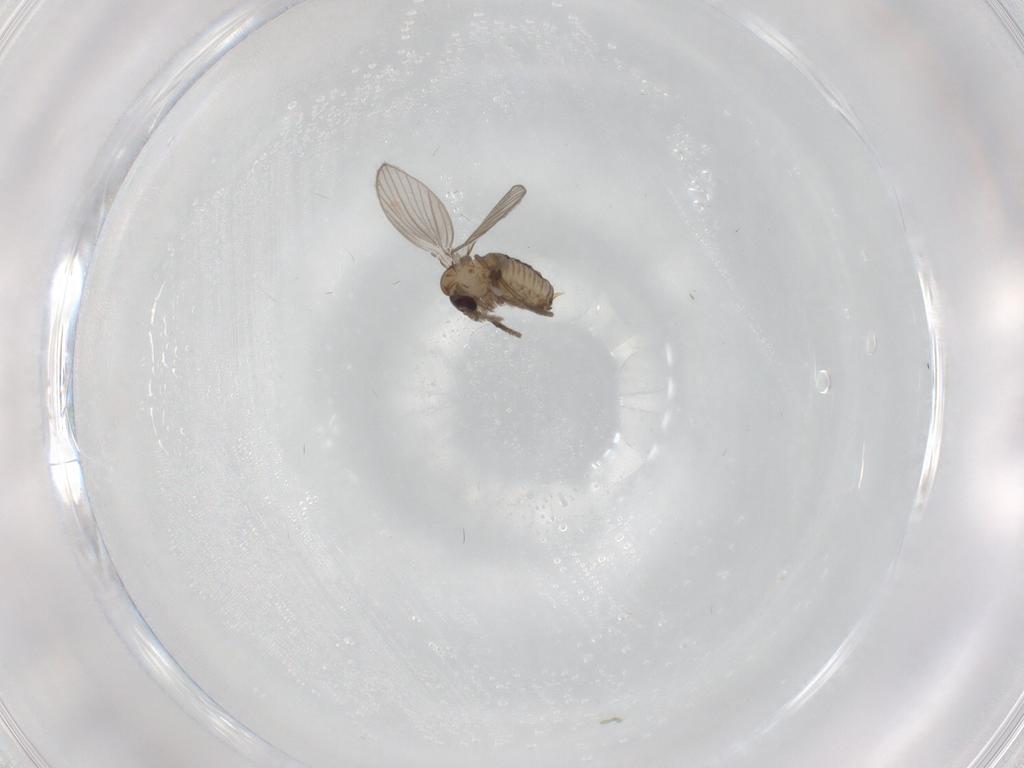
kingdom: Animalia
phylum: Arthropoda
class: Insecta
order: Diptera
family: Psychodidae
